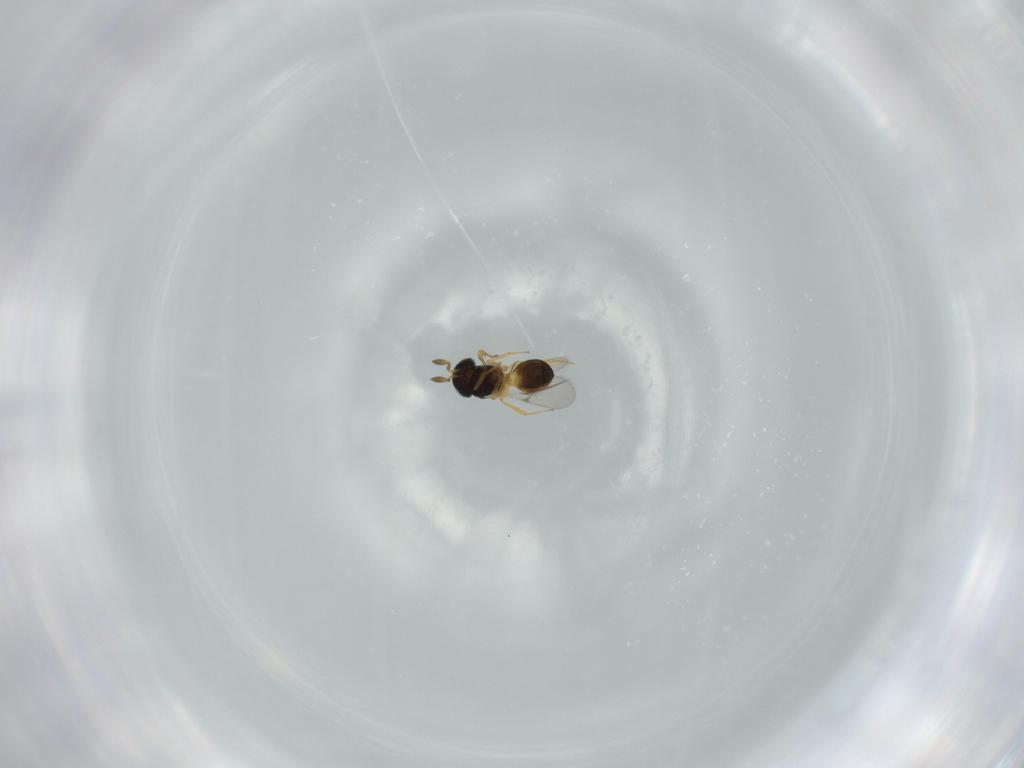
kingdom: Animalia
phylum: Arthropoda
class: Insecta
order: Hymenoptera
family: Scelionidae
